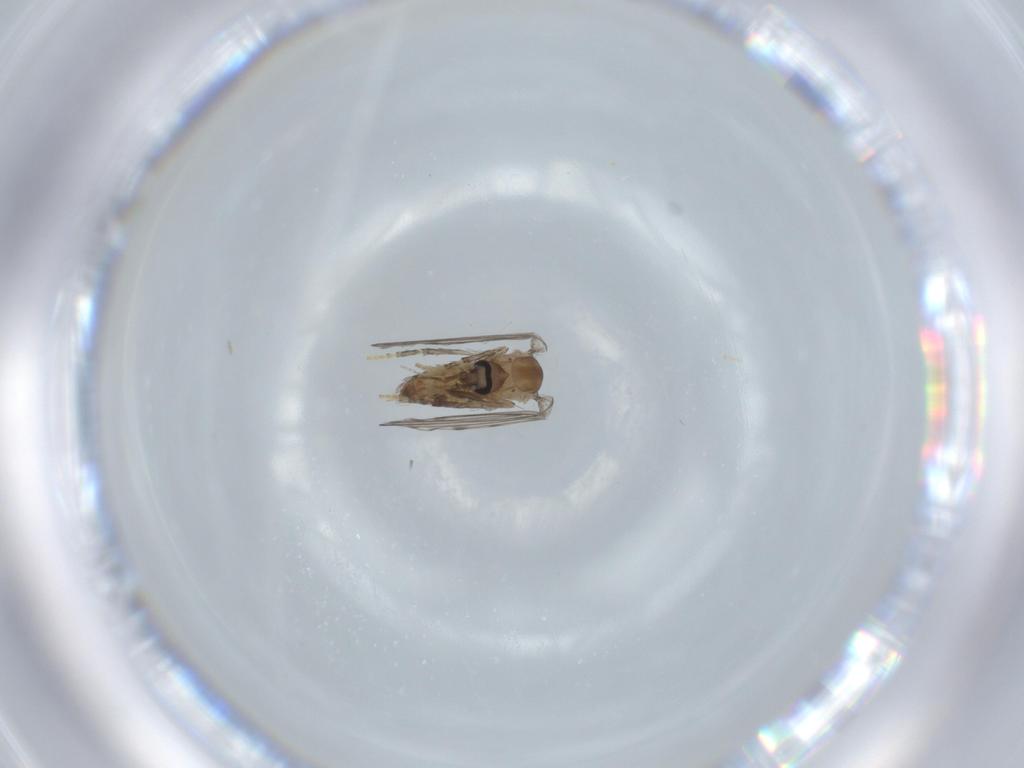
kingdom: Animalia
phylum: Arthropoda
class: Insecta
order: Diptera
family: Psychodidae
